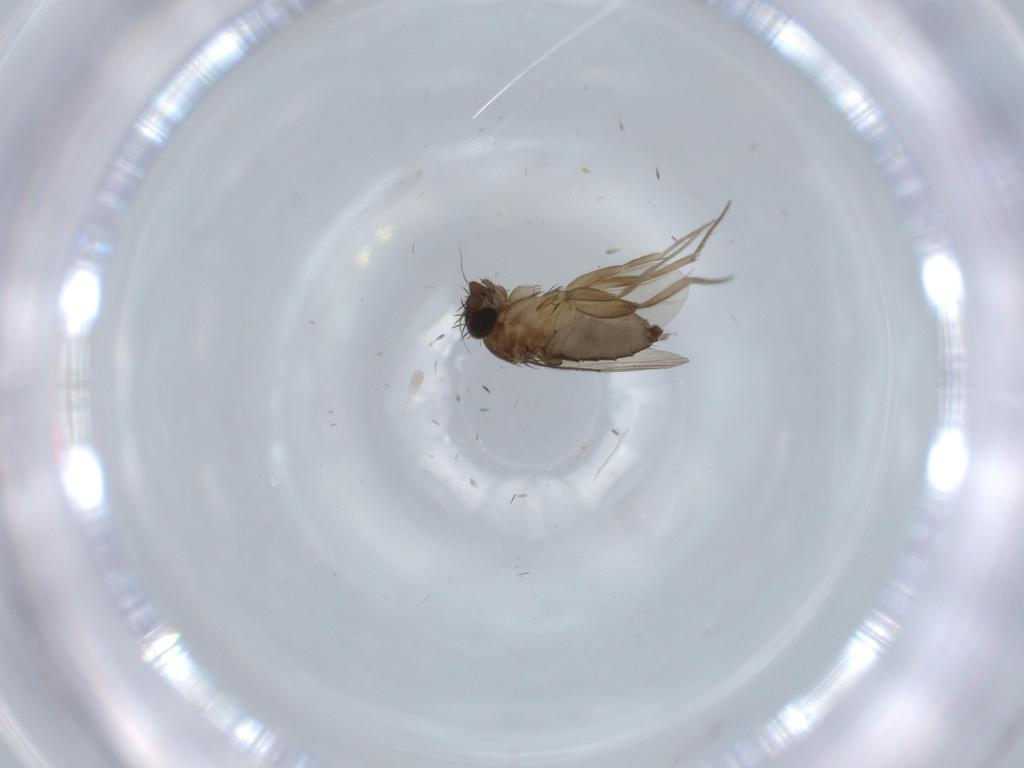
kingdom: Animalia
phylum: Arthropoda
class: Insecta
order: Diptera
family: Phoridae
